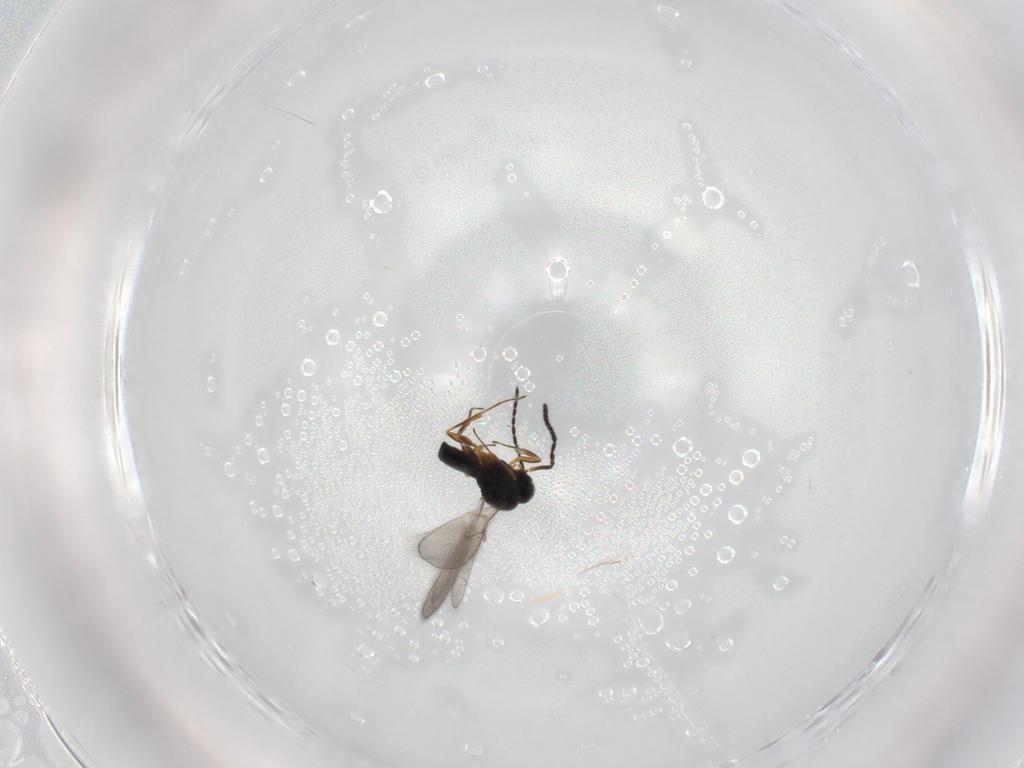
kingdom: Animalia
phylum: Arthropoda
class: Insecta
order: Hymenoptera
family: Scelionidae
